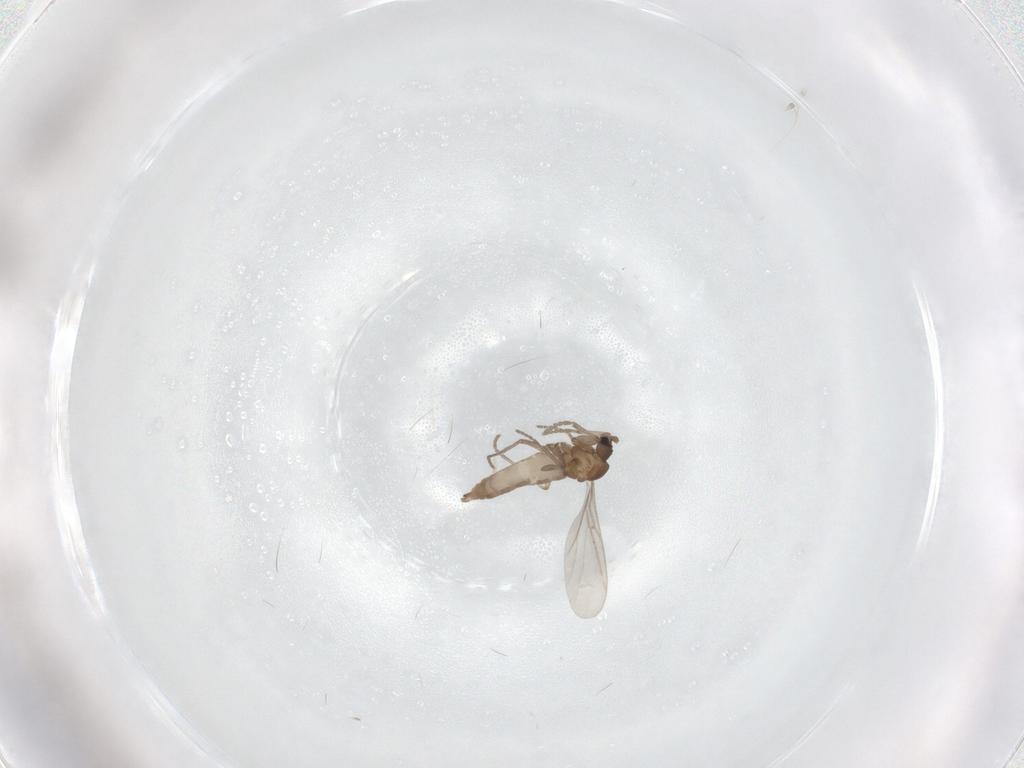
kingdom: Animalia
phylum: Arthropoda
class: Insecta
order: Diptera
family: Sciaridae
